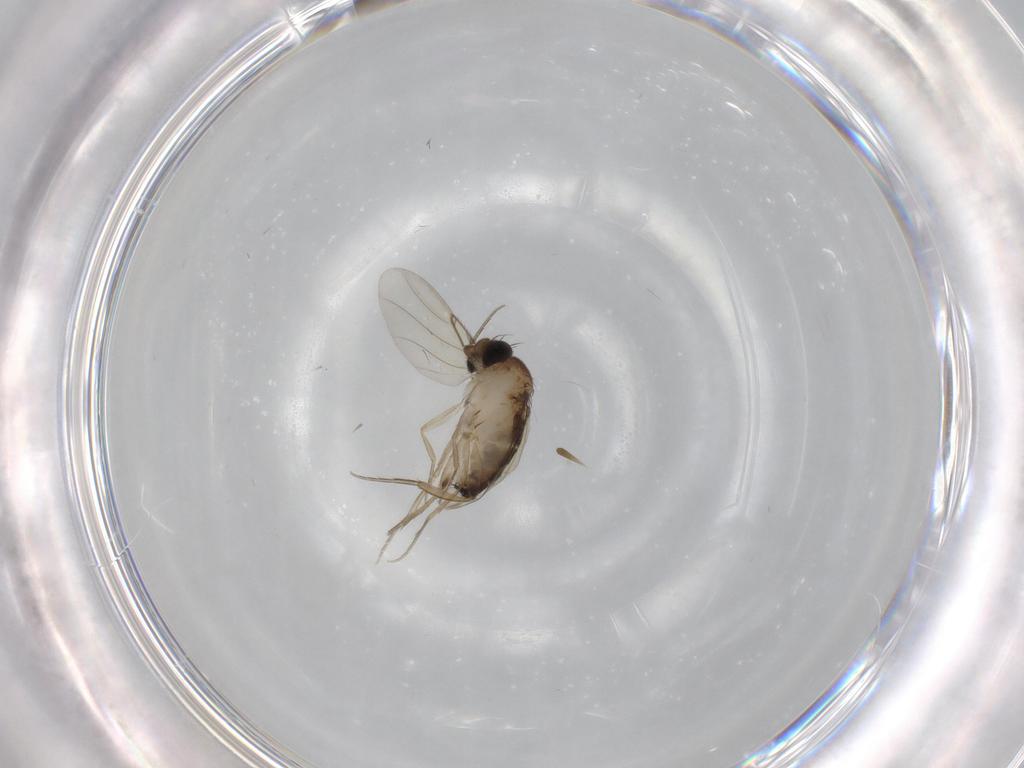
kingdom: Animalia
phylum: Arthropoda
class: Insecta
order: Diptera
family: Phoridae
